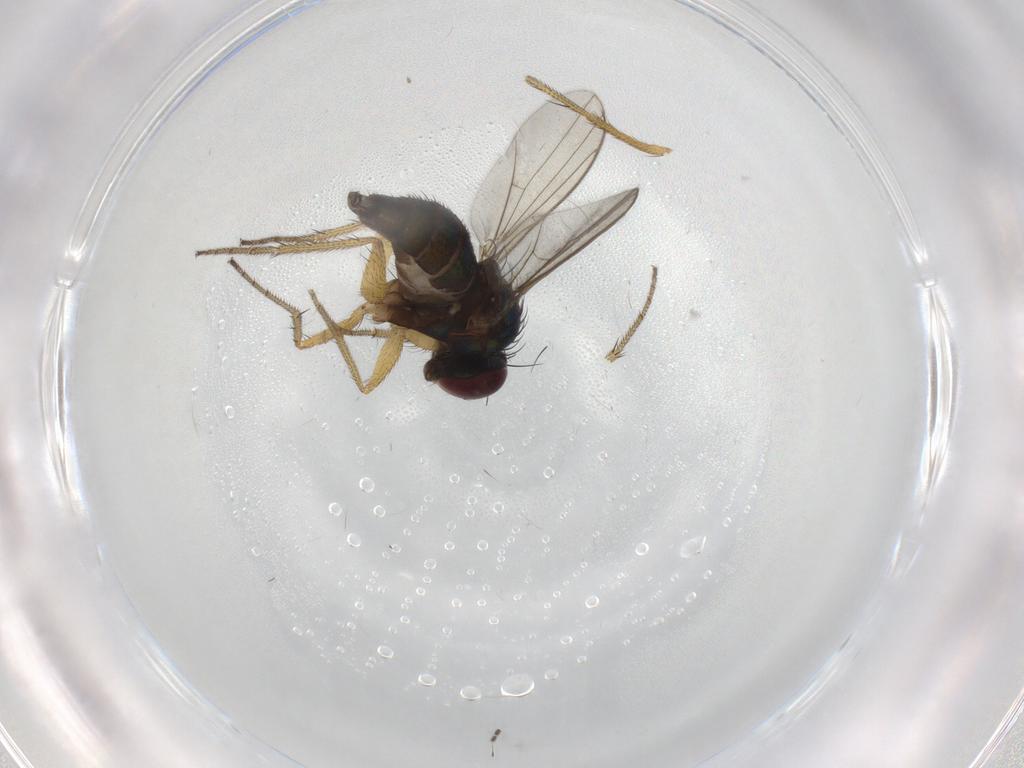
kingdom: Animalia
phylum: Arthropoda
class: Insecta
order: Diptera
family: Dolichopodidae
